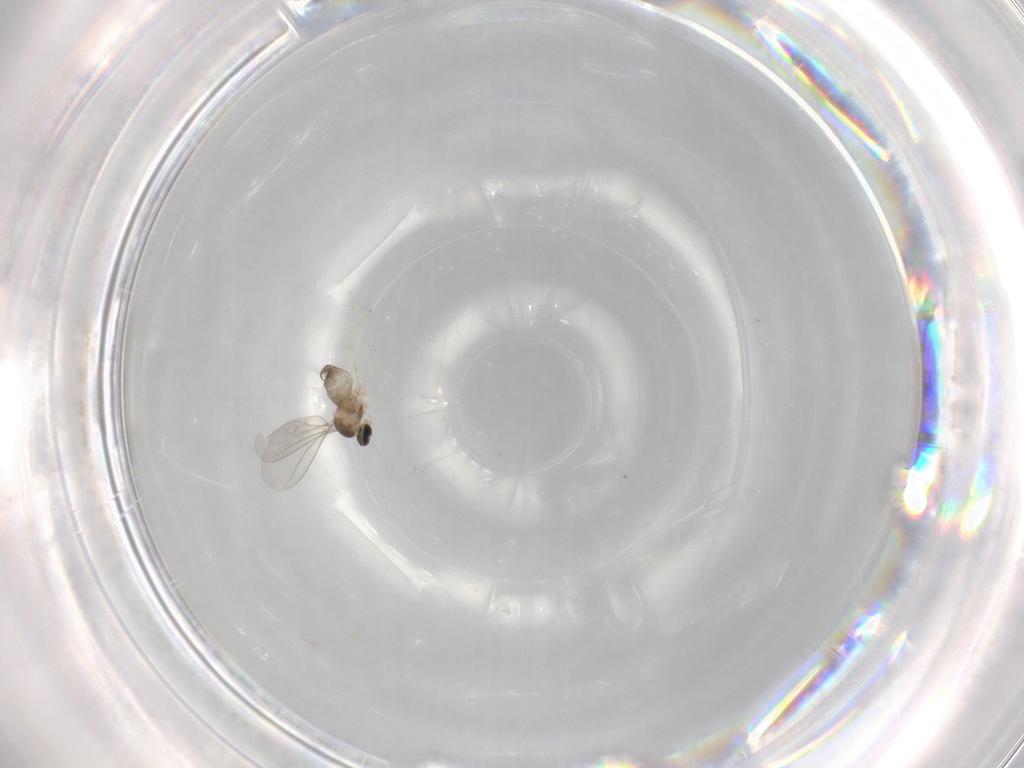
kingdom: Animalia
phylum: Arthropoda
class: Insecta
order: Diptera
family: Cecidomyiidae
